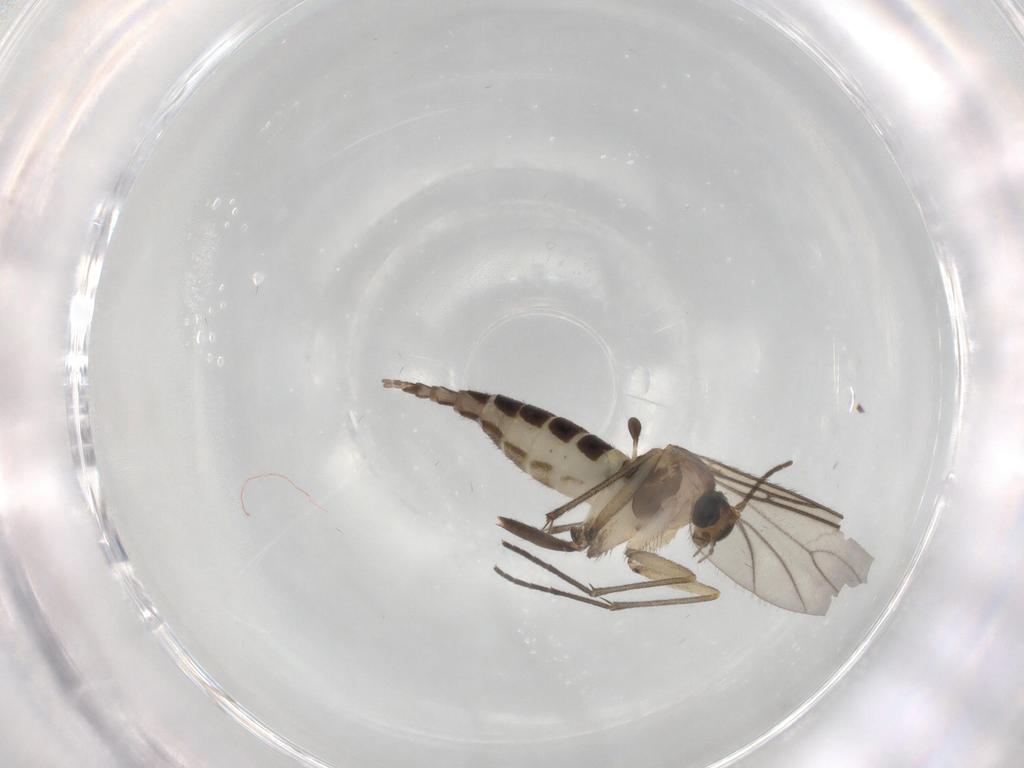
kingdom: Animalia
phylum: Arthropoda
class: Insecta
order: Diptera
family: Sciaridae
